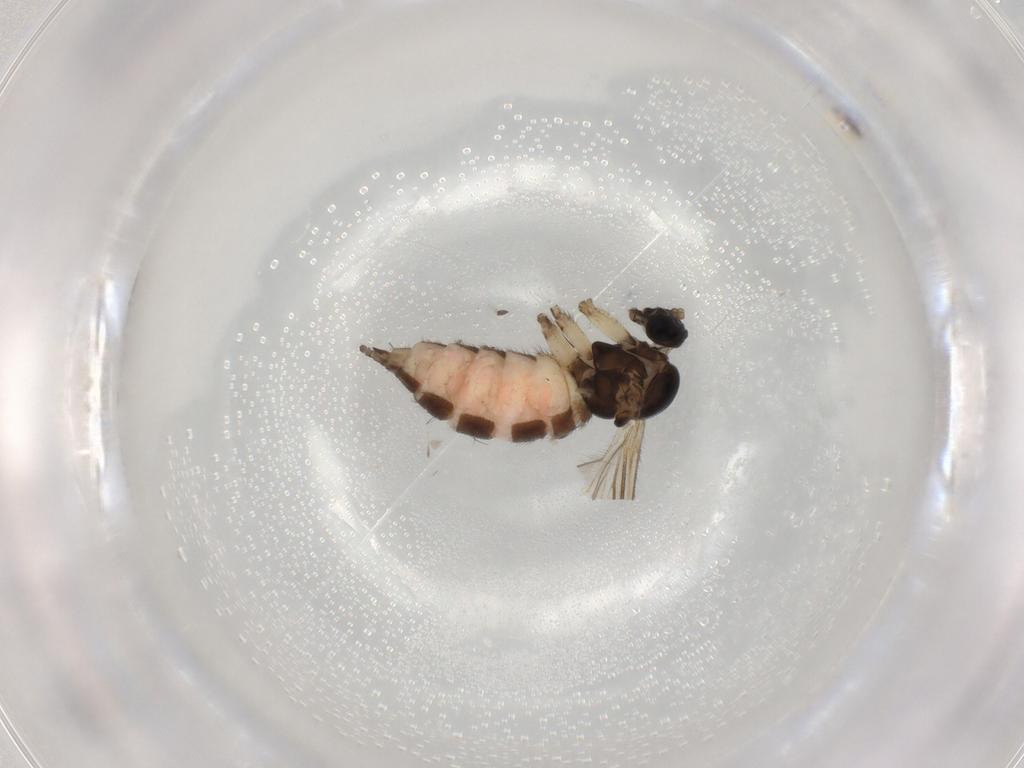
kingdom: Animalia
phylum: Arthropoda
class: Insecta
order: Diptera
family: Sciaridae
